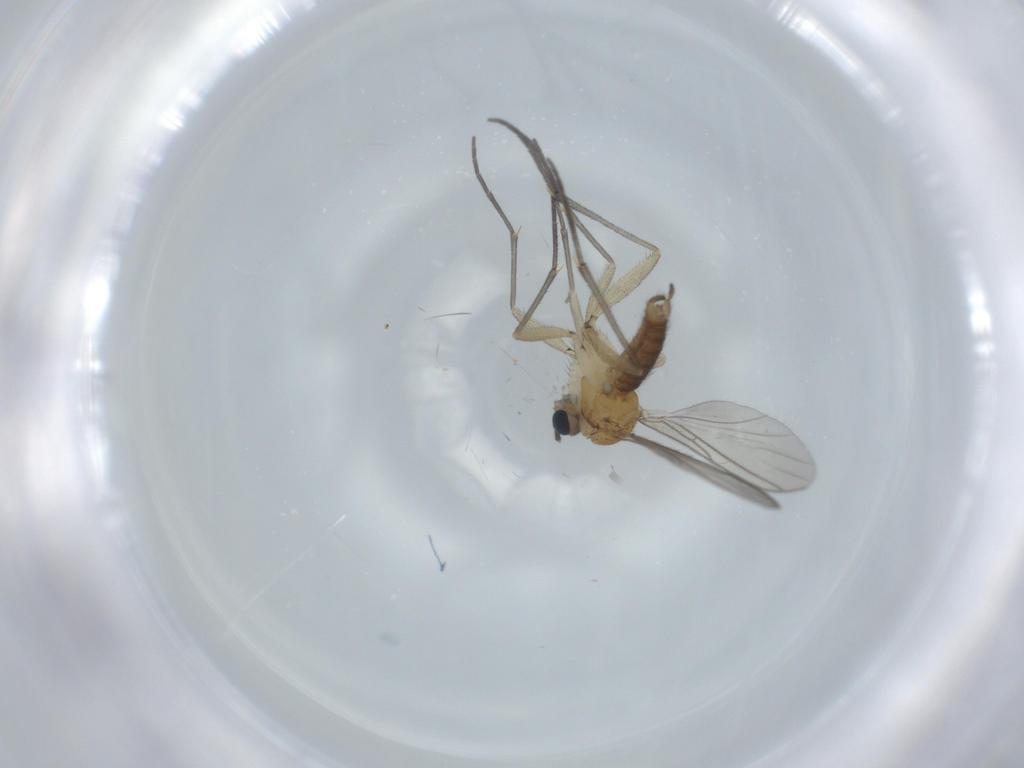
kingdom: Animalia
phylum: Arthropoda
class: Insecta
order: Diptera
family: Sciaridae
